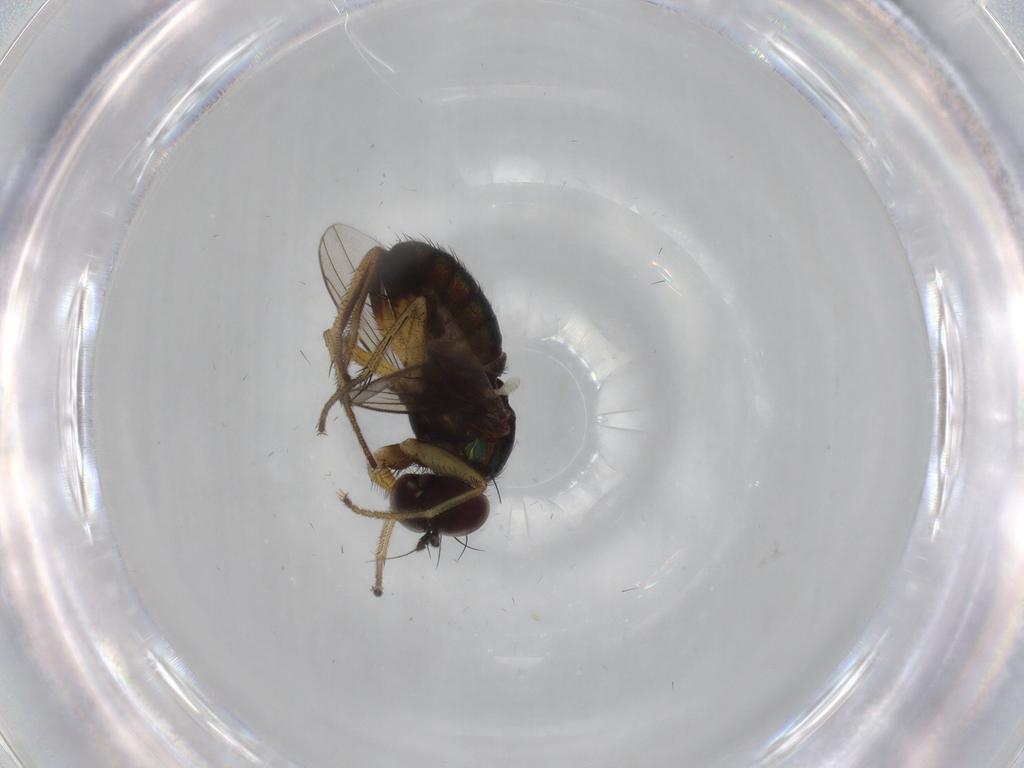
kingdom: Animalia
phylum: Arthropoda
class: Insecta
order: Diptera
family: Dolichopodidae
